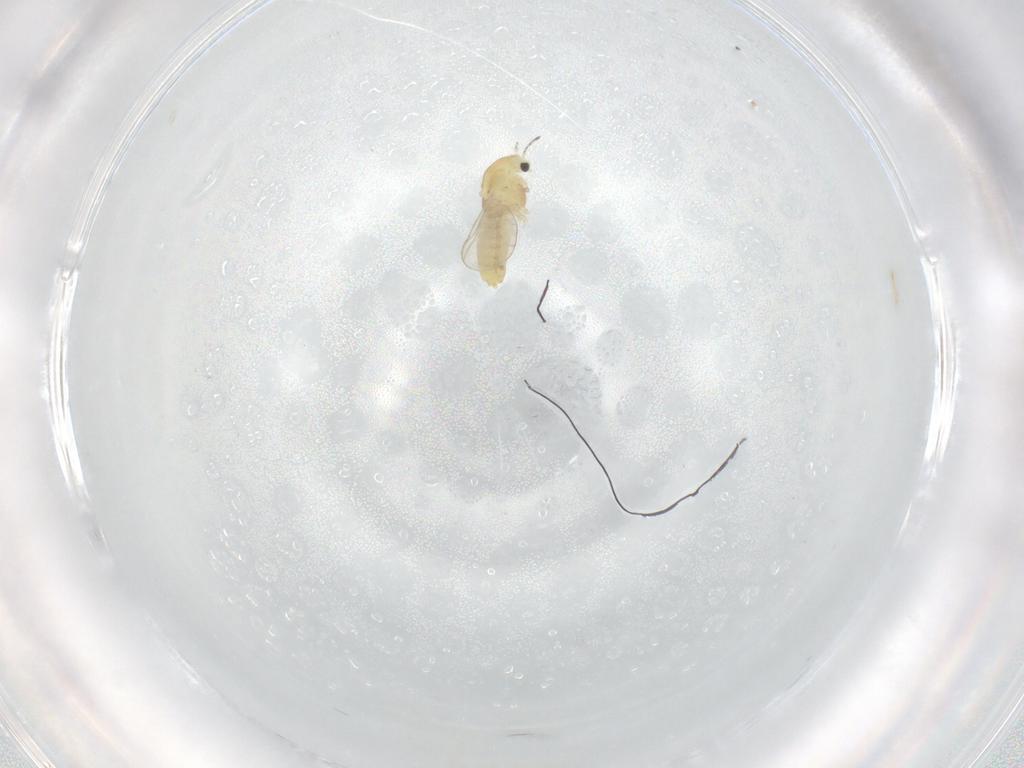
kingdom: Animalia
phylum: Arthropoda
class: Insecta
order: Diptera
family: Chironomidae
